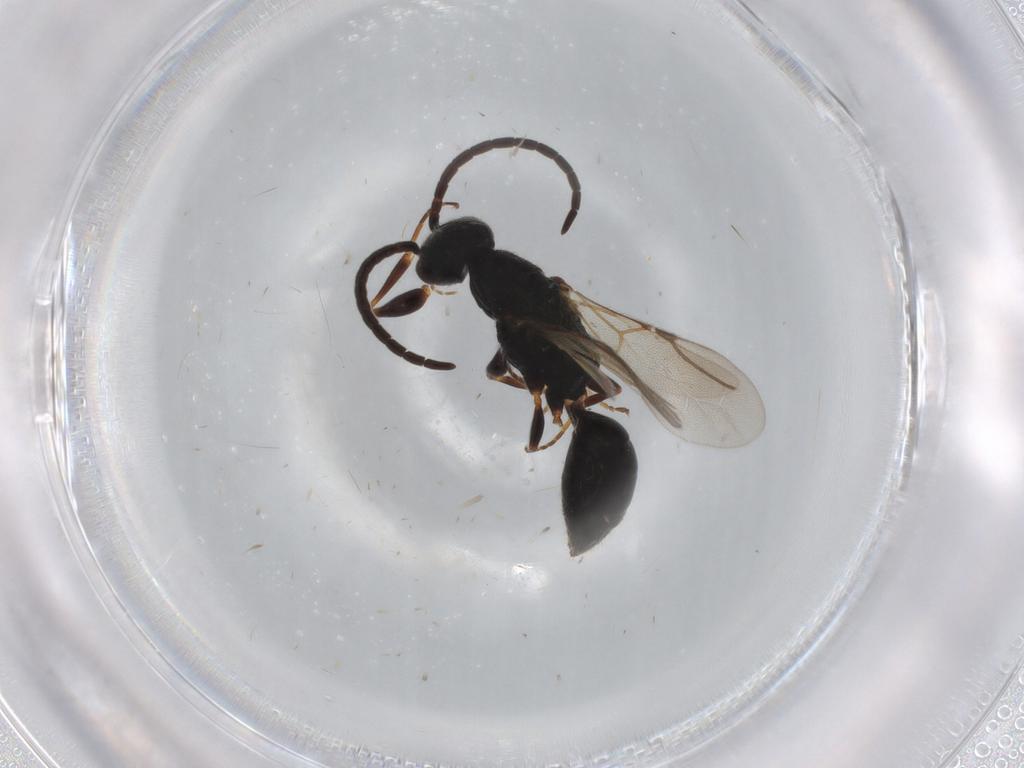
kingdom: Animalia
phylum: Arthropoda
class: Insecta
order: Hymenoptera
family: Bethylidae
